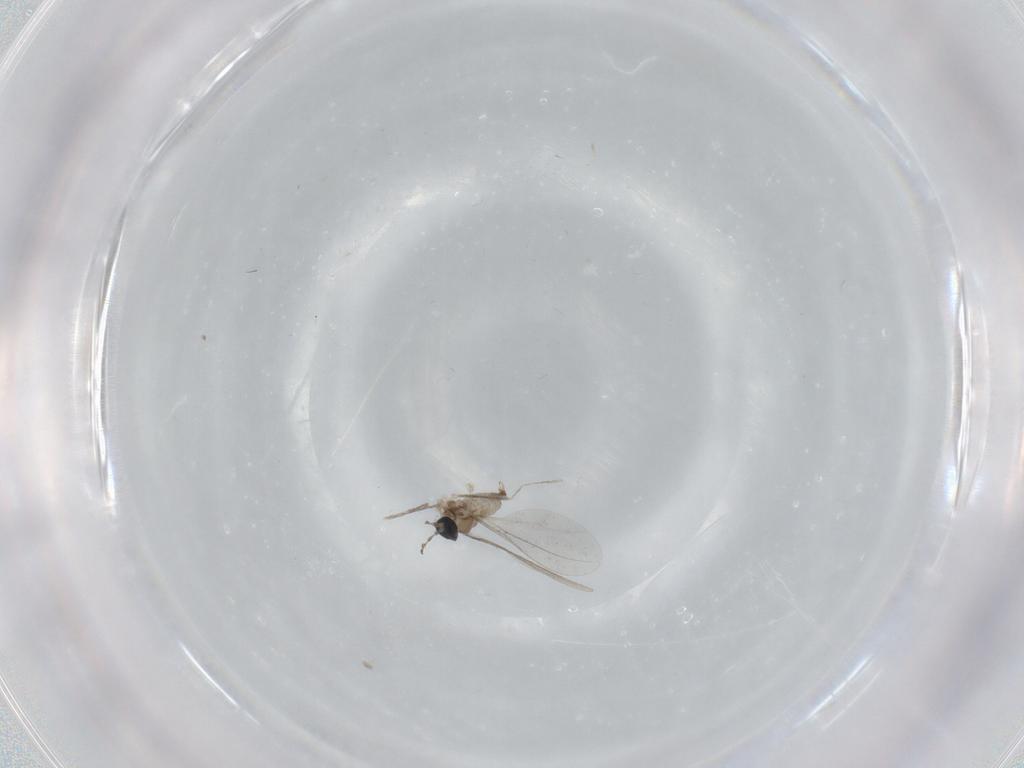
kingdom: Animalia
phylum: Arthropoda
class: Insecta
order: Diptera
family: Cecidomyiidae
